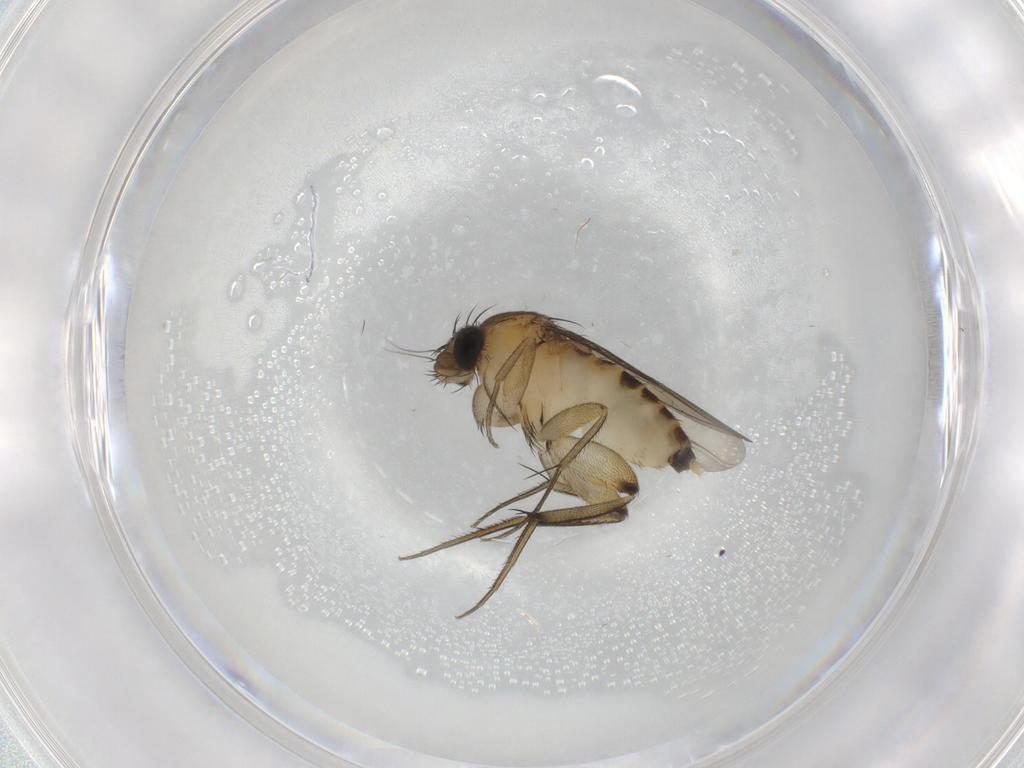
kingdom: Animalia
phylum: Arthropoda
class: Insecta
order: Diptera
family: Phoridae
